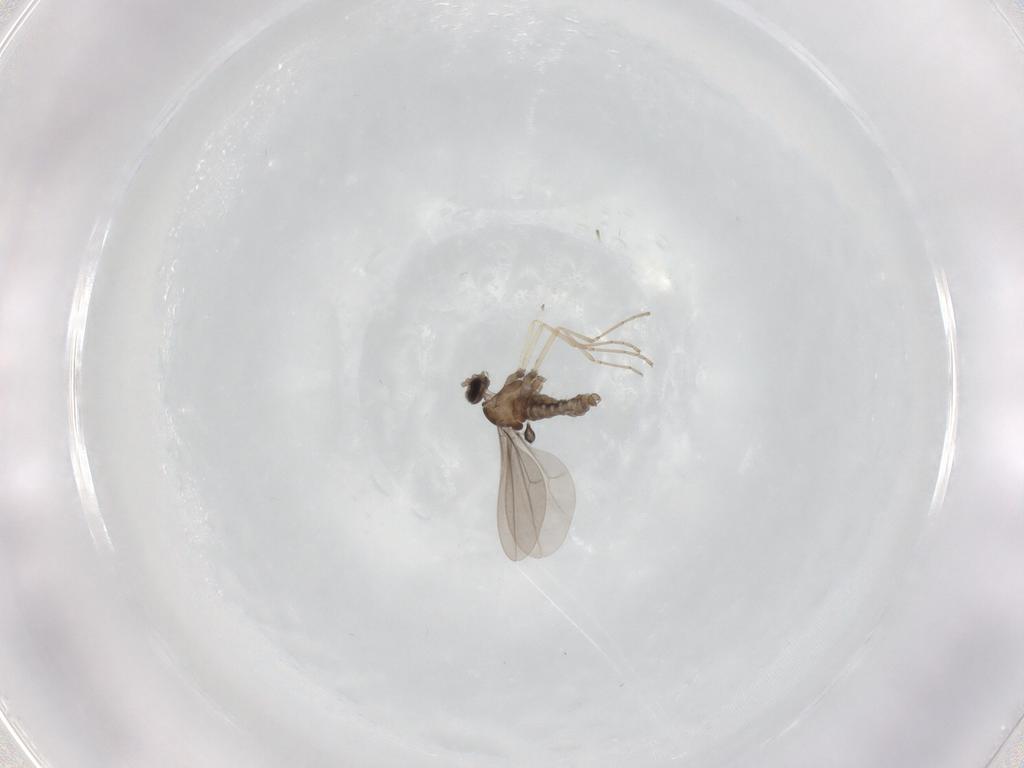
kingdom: Animalia
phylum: Arthropoda
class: Insecta
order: Diptera
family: Cecidomyiidae
